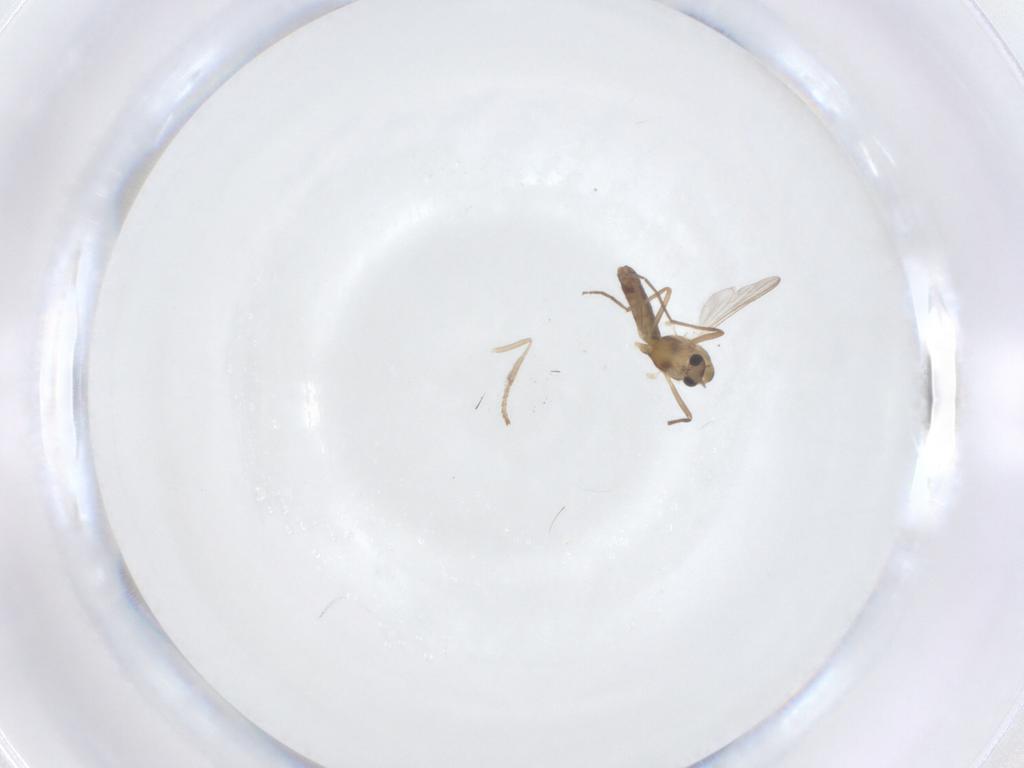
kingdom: Animalia
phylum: Arthropoda
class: Insecta
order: Diptera
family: Psychodidae
